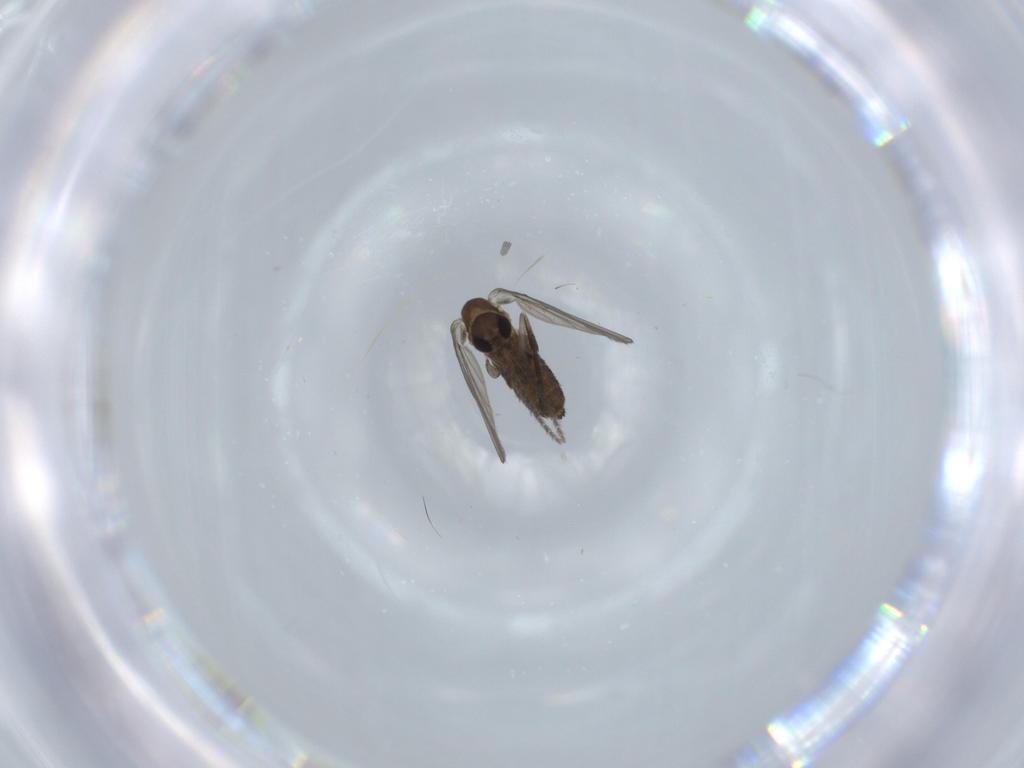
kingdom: Animalia
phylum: Arthropoda
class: Insecta
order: Diptera
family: Psychodidae
